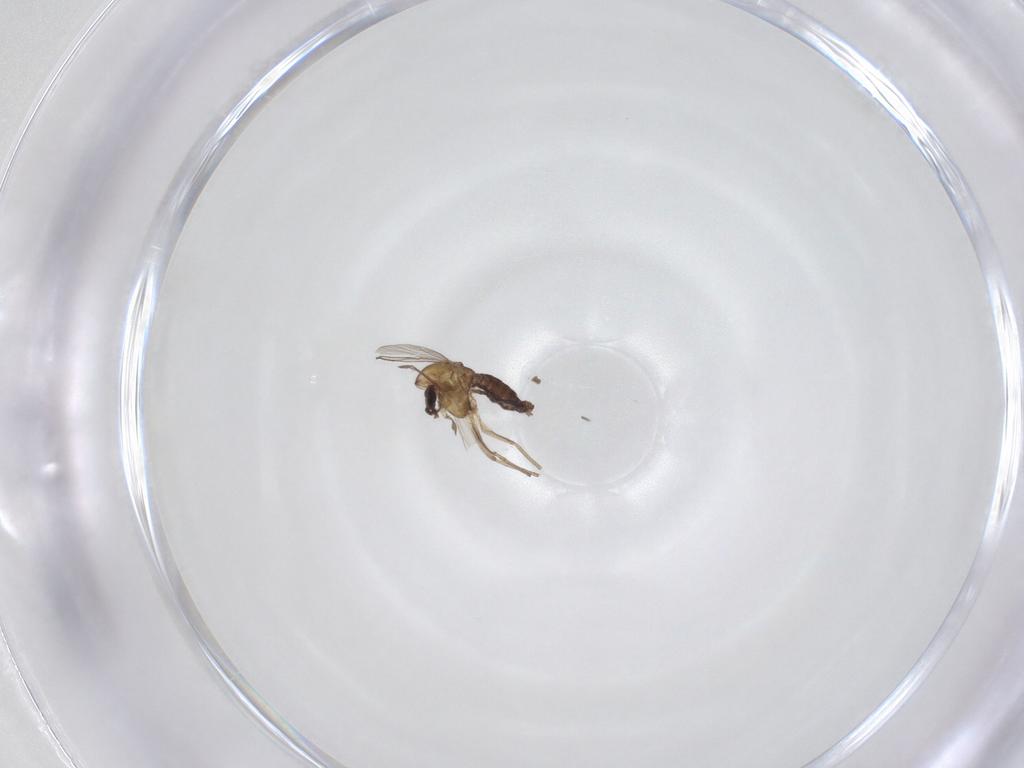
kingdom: Animalia
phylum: Arthropoda
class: Insecta
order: Diptera
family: Chironomidae
